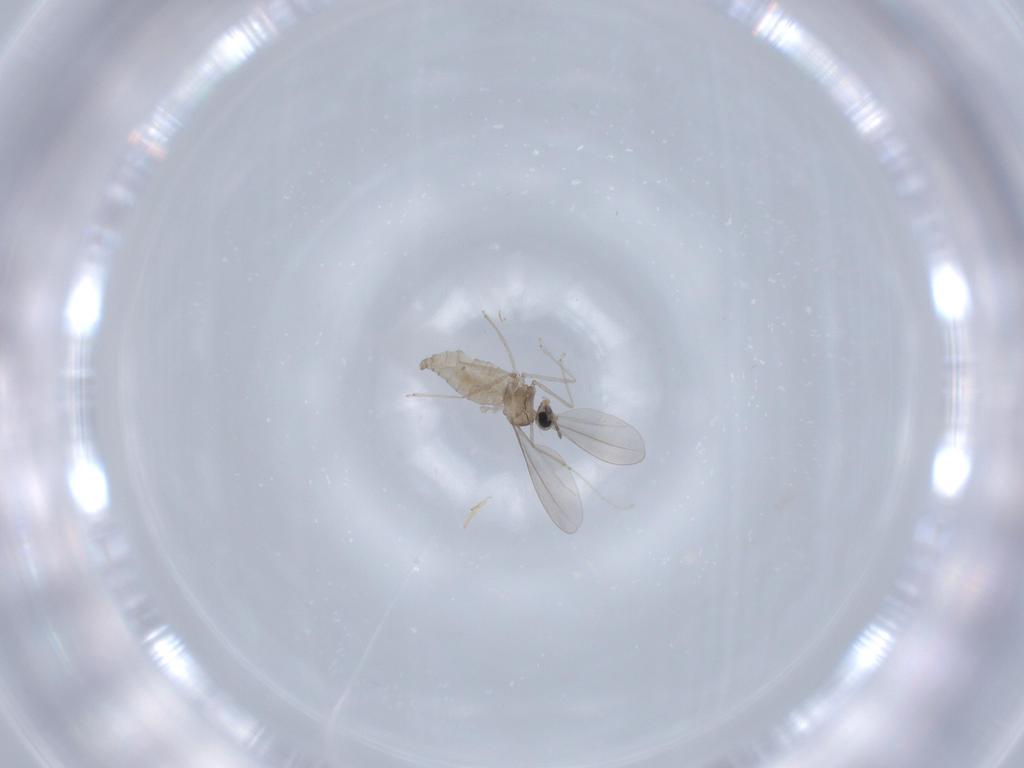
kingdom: Animalia
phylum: Arthropoda
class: Insecta
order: Diptera
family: Cecidomyiidae
